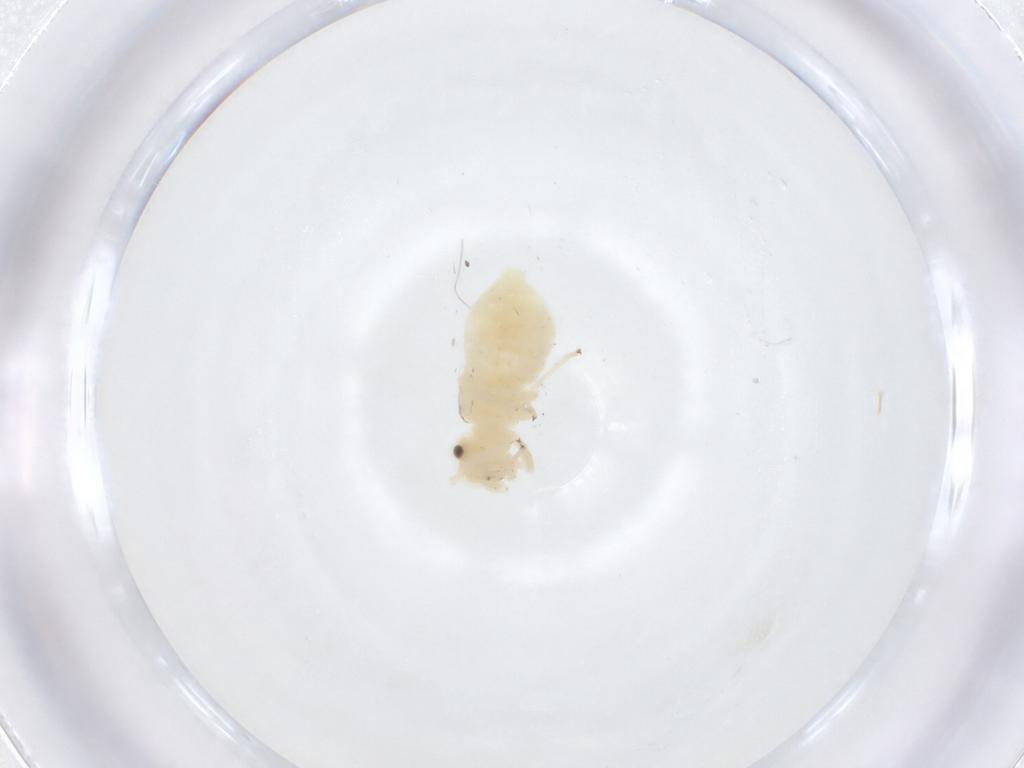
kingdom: Animalia
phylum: Arthropoda
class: Insecta
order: Psocodea
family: Caeciliusidae
